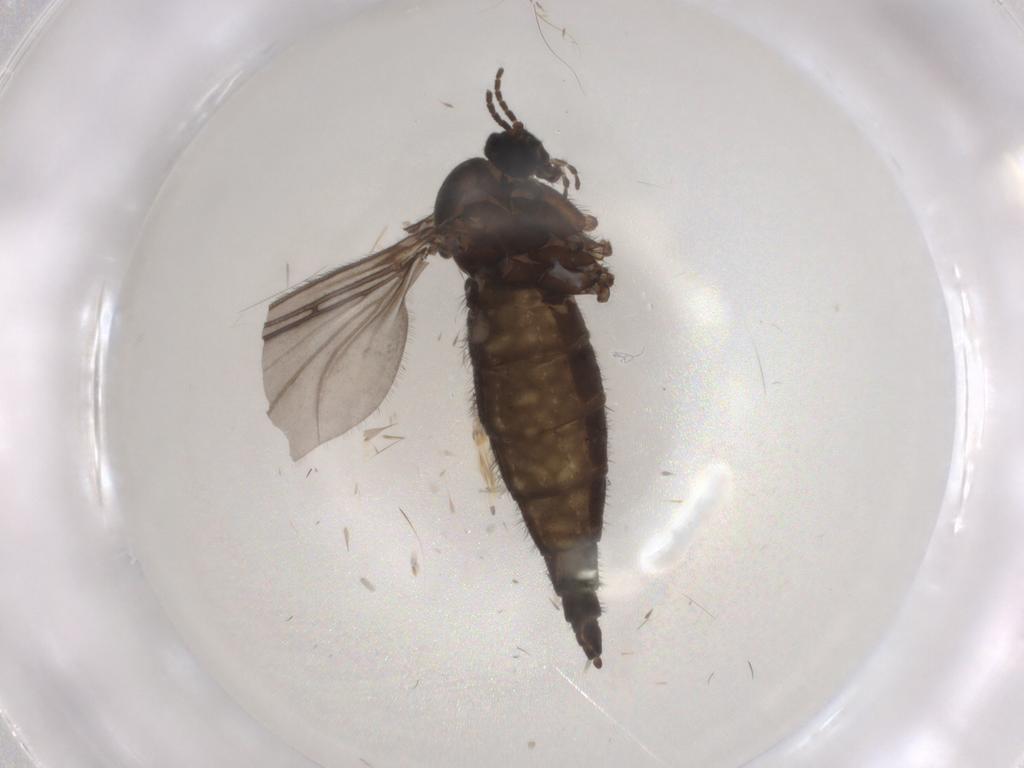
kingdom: Animalia
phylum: Arthropoda
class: Insecta
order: Diptera
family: Sciaridae
